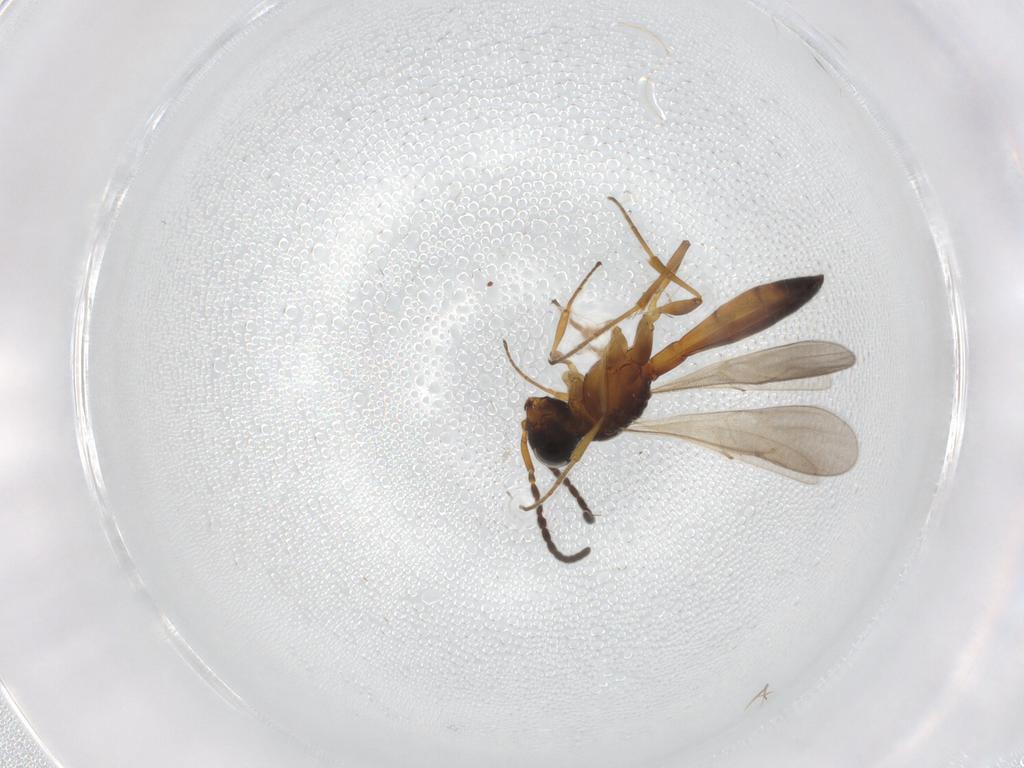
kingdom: Animalia
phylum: Arthropoda
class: Insecta
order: Hymenoptera
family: Scelionidae
